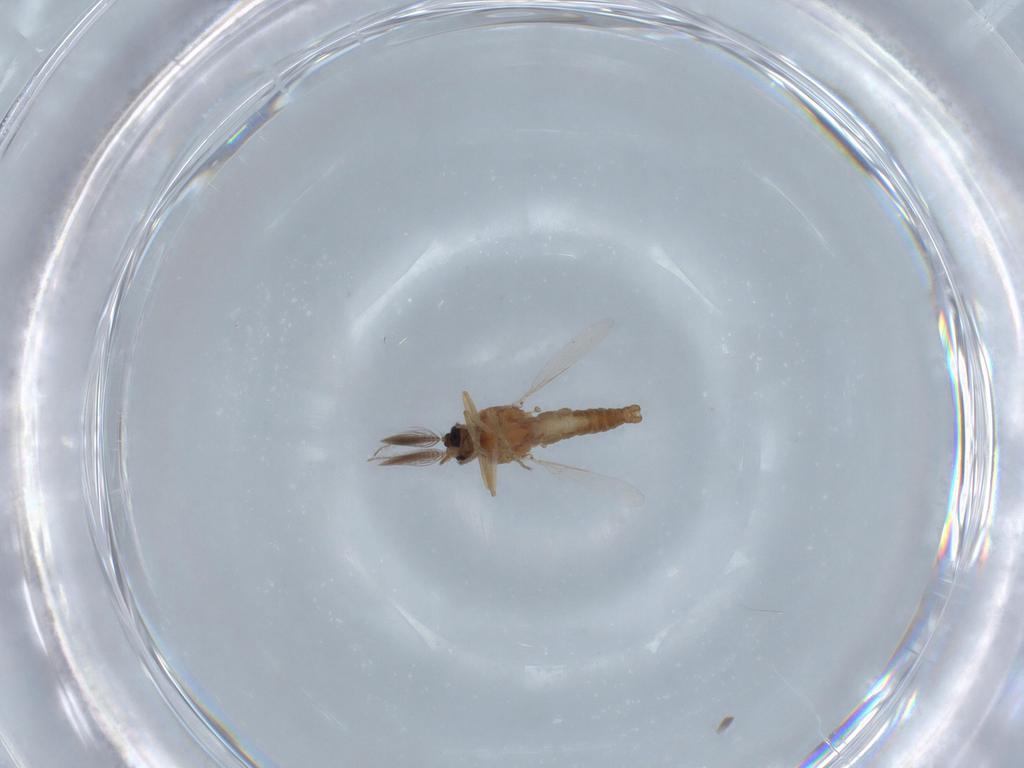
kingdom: Animalia
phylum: Arthropoda
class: Insecta
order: Diptera
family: Ceratopogonidae
